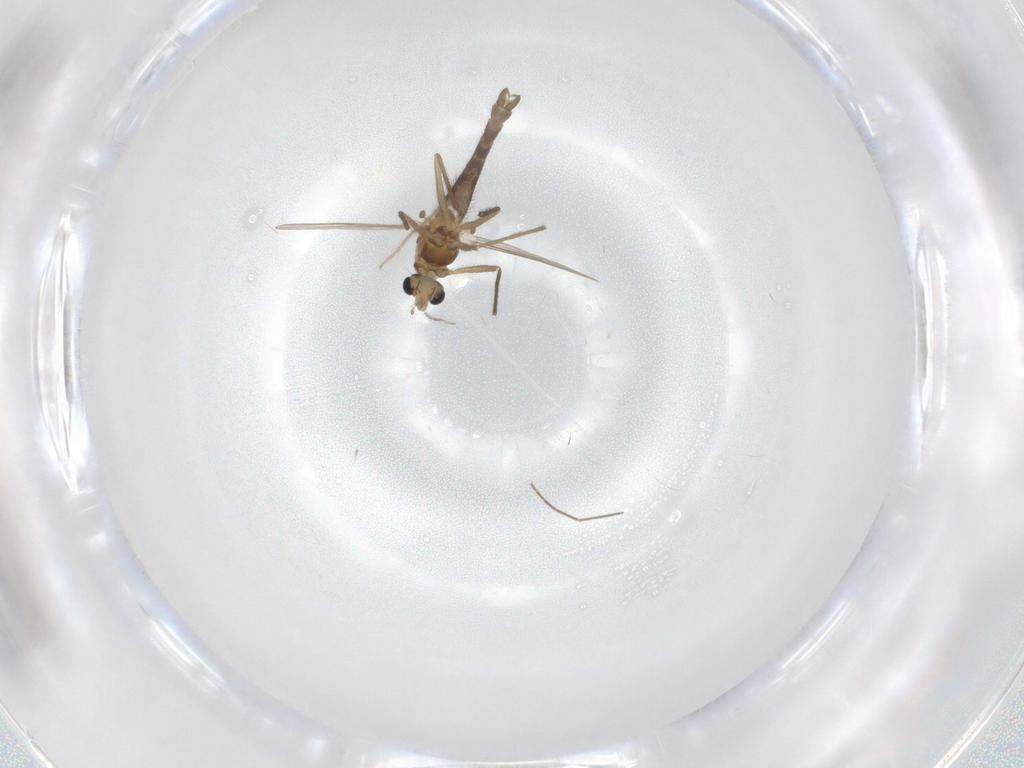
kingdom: Animalia
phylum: Arthropoda
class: Insecta
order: Diptera
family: Chironomidae
